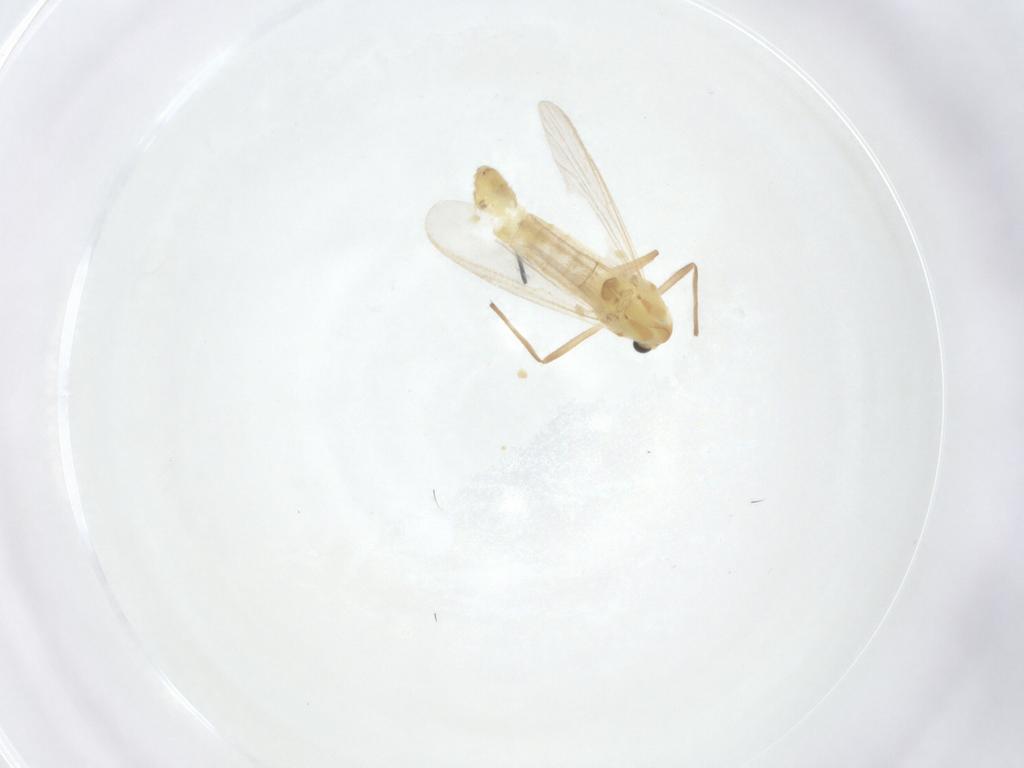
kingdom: Animalia
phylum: Arthropoda
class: Insecta
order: Diptera
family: Chironomidae
